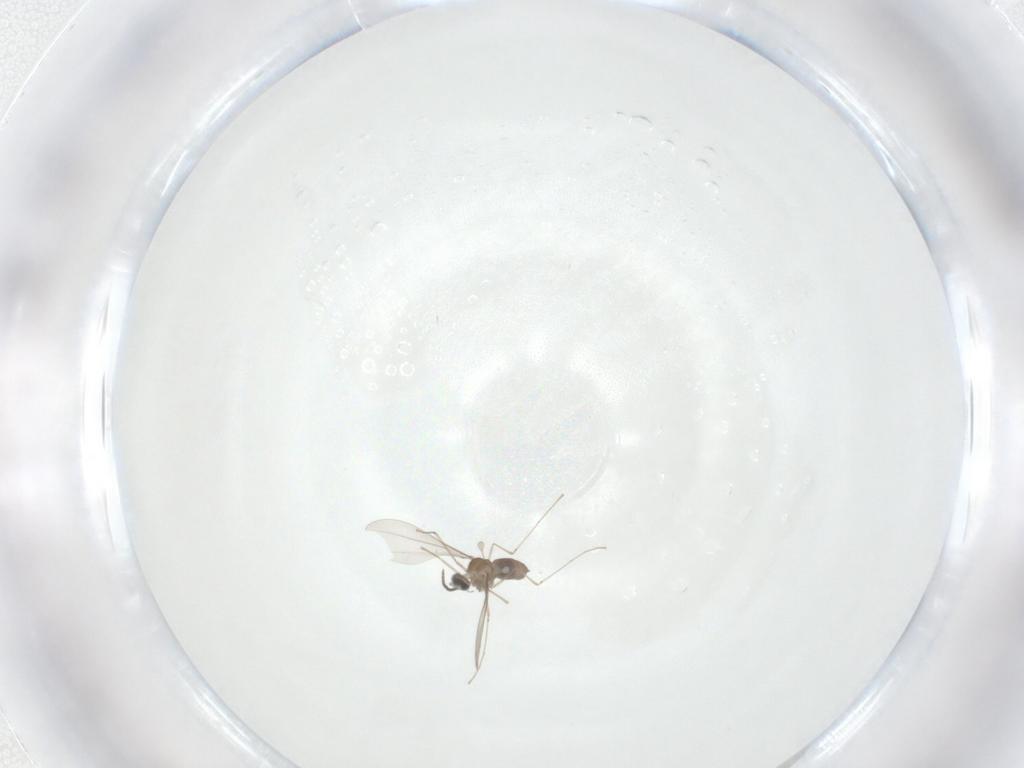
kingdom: Animalia
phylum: Arthropoda
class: Insecta
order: Diptera
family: Cecidomyiidae
